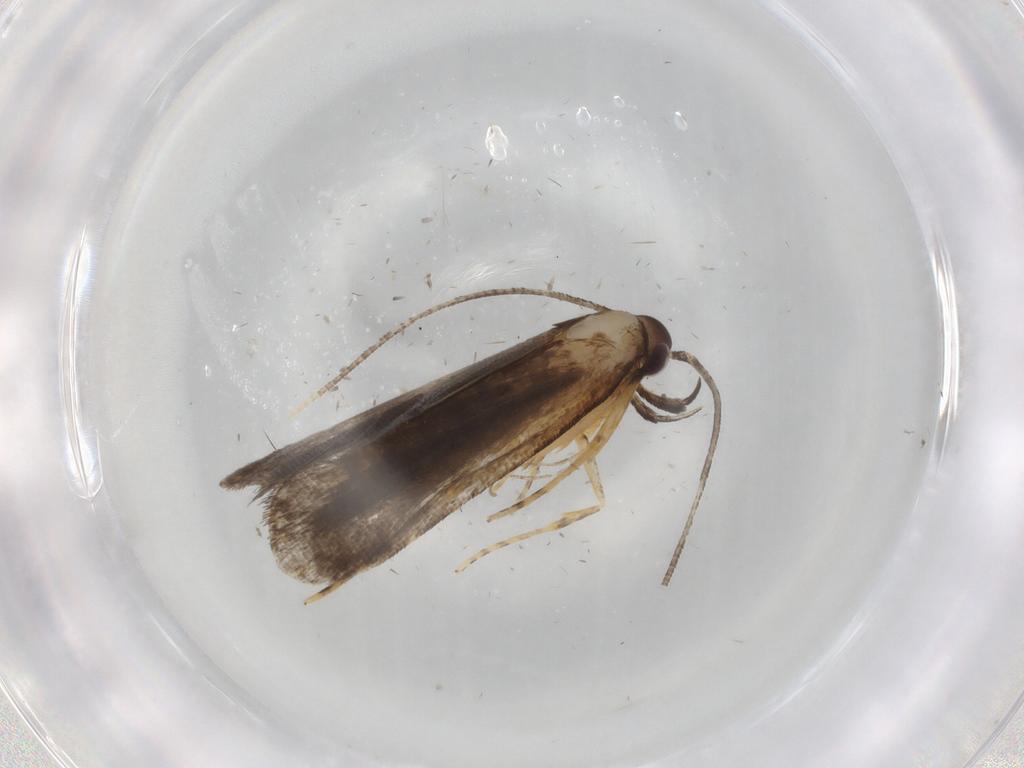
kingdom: Animalia
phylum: Arthropoda
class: Insecta
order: Lepidoptera
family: Cosmopterigidae
